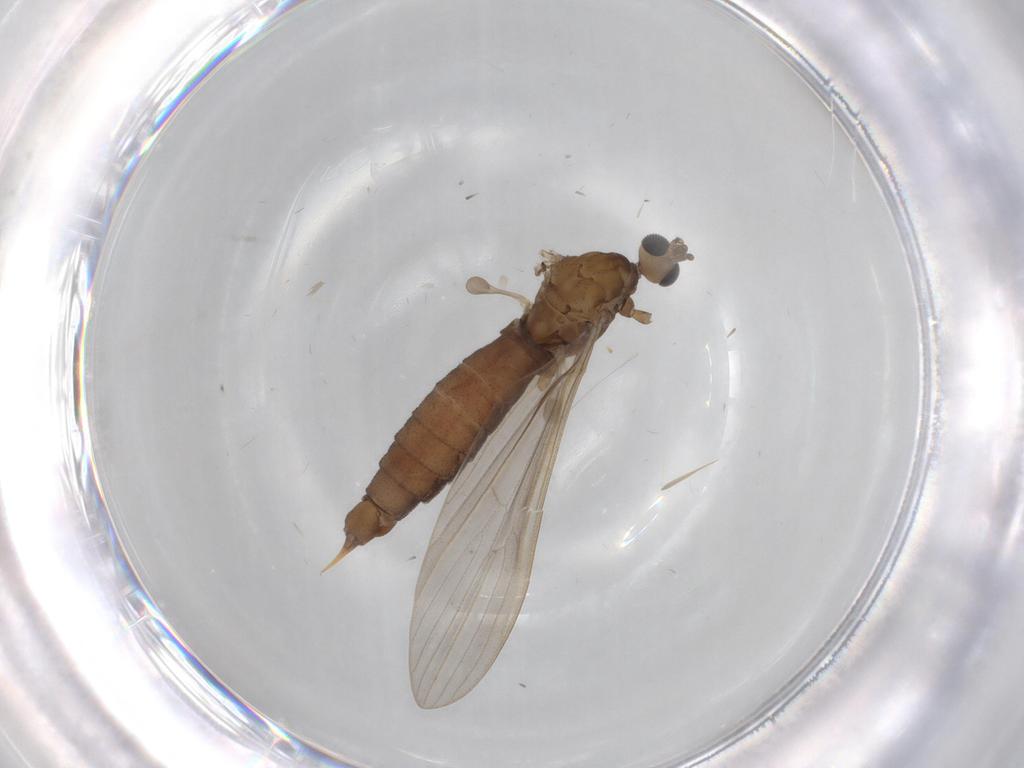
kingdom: Animalia
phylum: Arthropoda
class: Insecta
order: Diptera
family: Limoniidae
